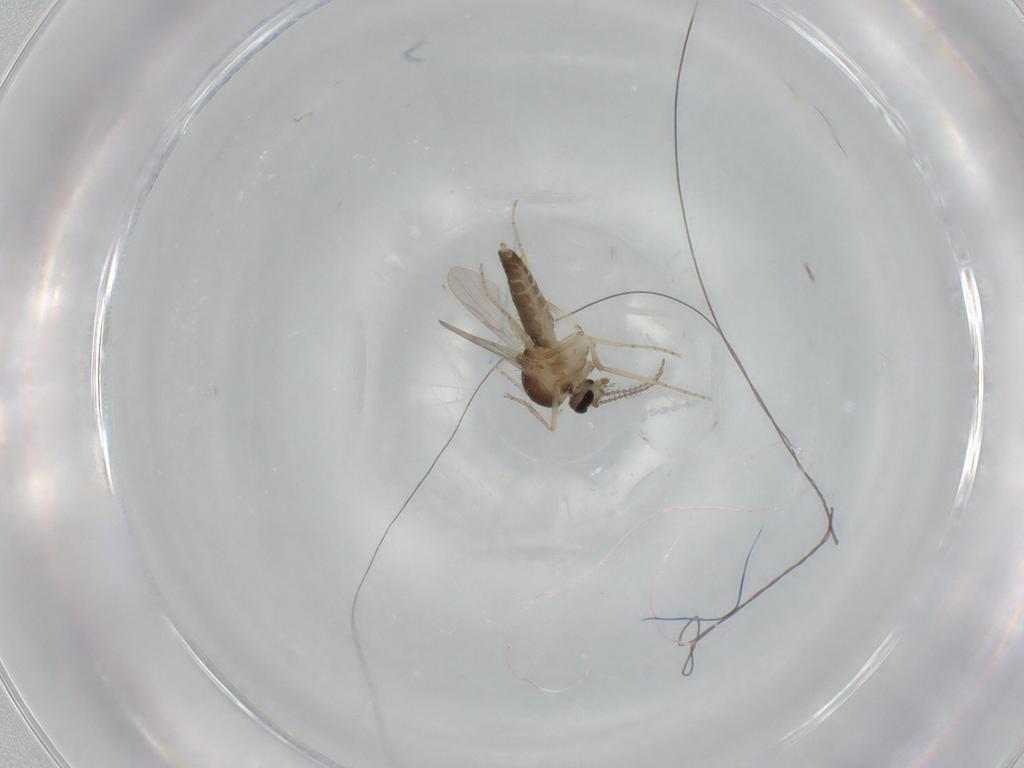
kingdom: Animalia
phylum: Arthropoda
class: Insecta
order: Diptera
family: Ceratopogonidae
